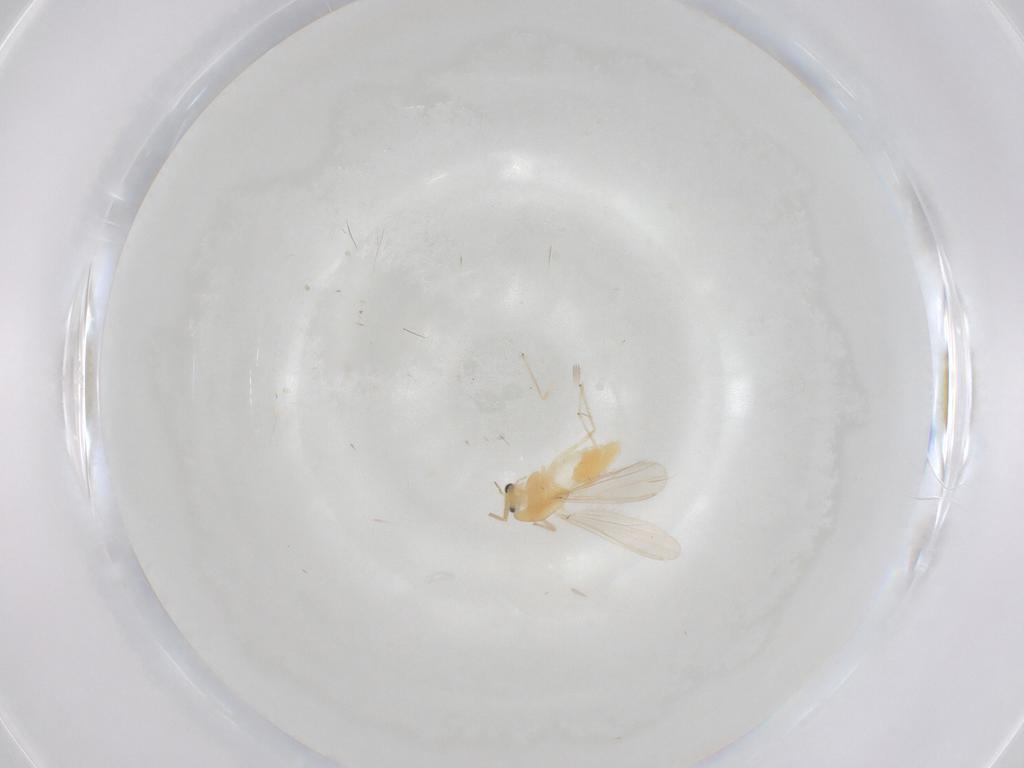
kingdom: Animalia
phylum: Arthropoda
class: Insecta
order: Diptera
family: Chironomidae
